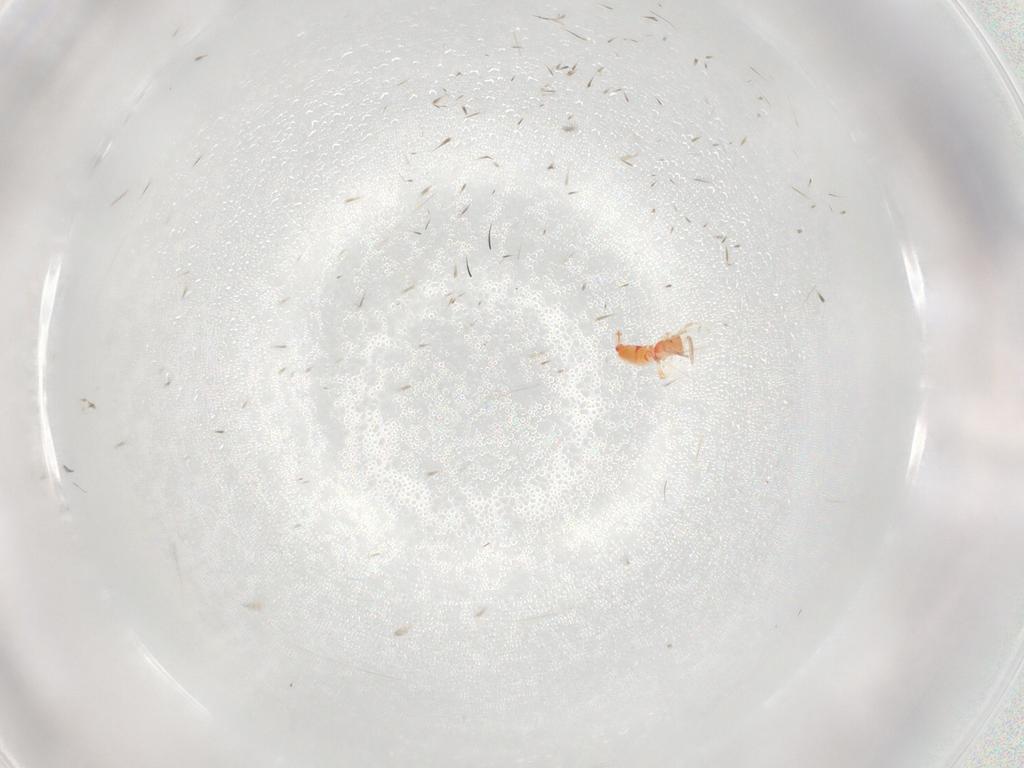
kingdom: Animalia
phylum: Arthropoda
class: Insecta
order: Thysanoptera
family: Aeolothripidae
